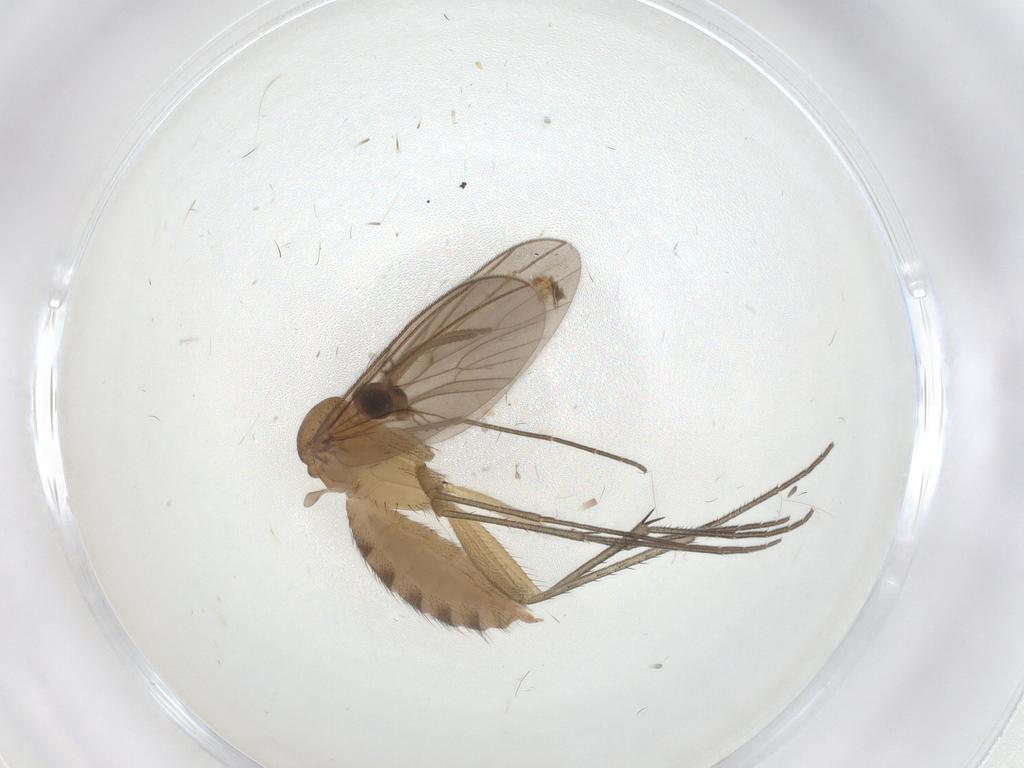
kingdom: Animalia
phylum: Arthropoda
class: Insecta
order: Diptera
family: Mycetophilidae
